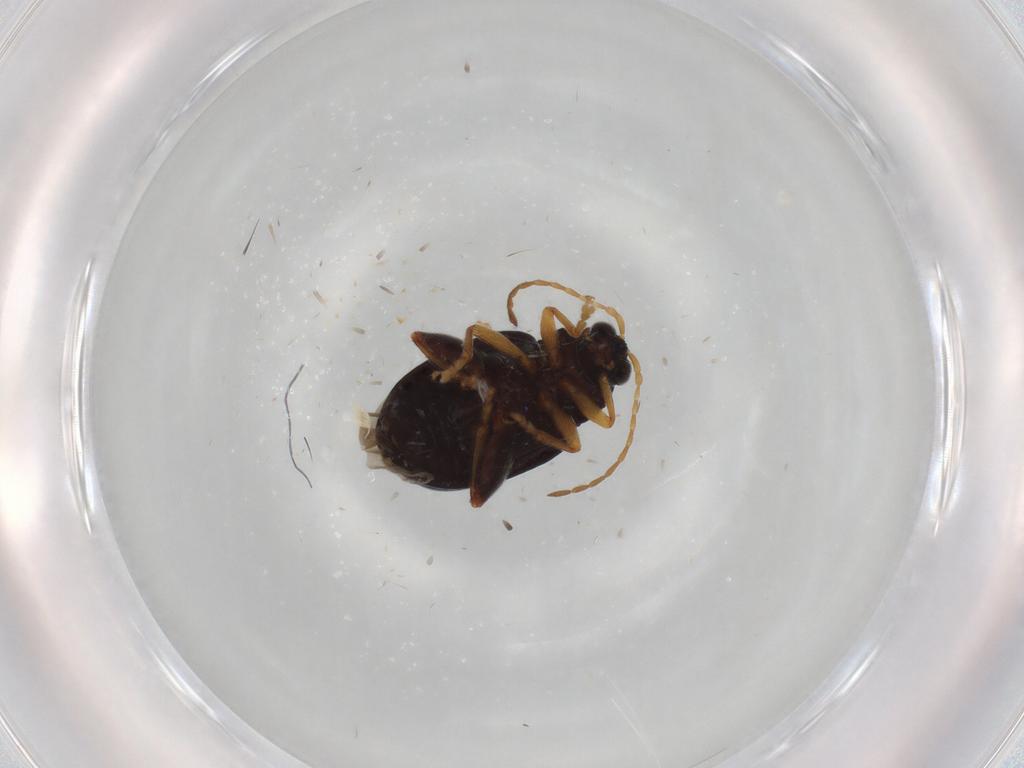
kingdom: Animalia
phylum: Arthropoda
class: Insecta
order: Coleoptera
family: Chrysomelidae
